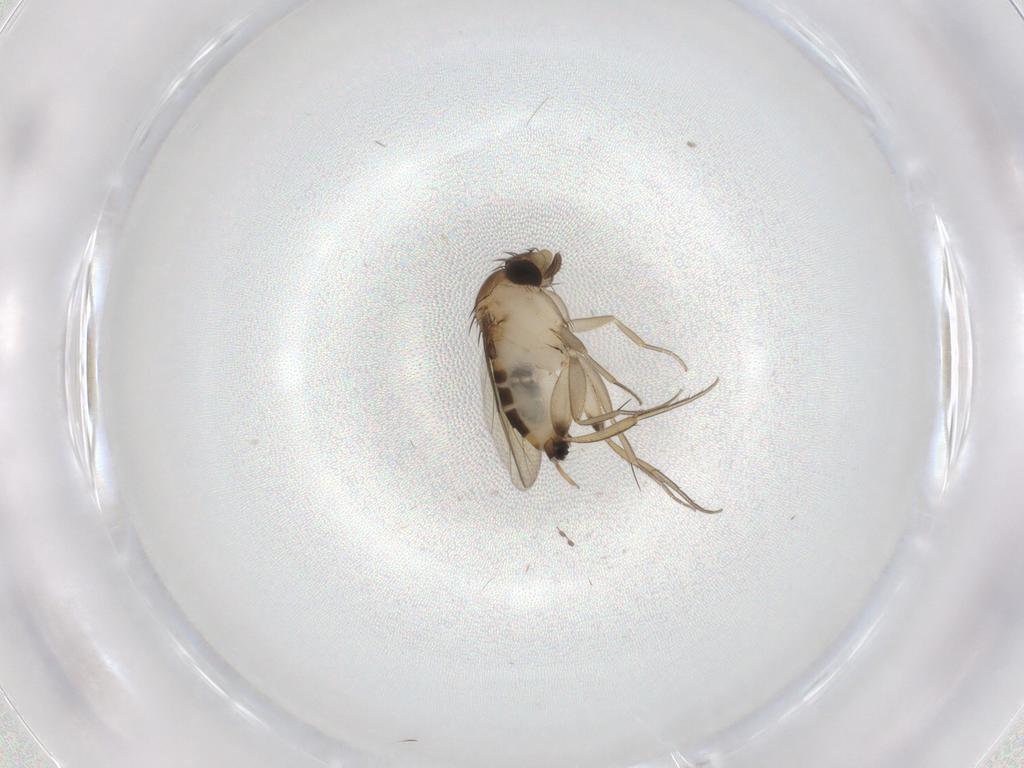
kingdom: Animalia
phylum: Arthropoda
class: Insecta
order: Diptera
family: Phoridae
